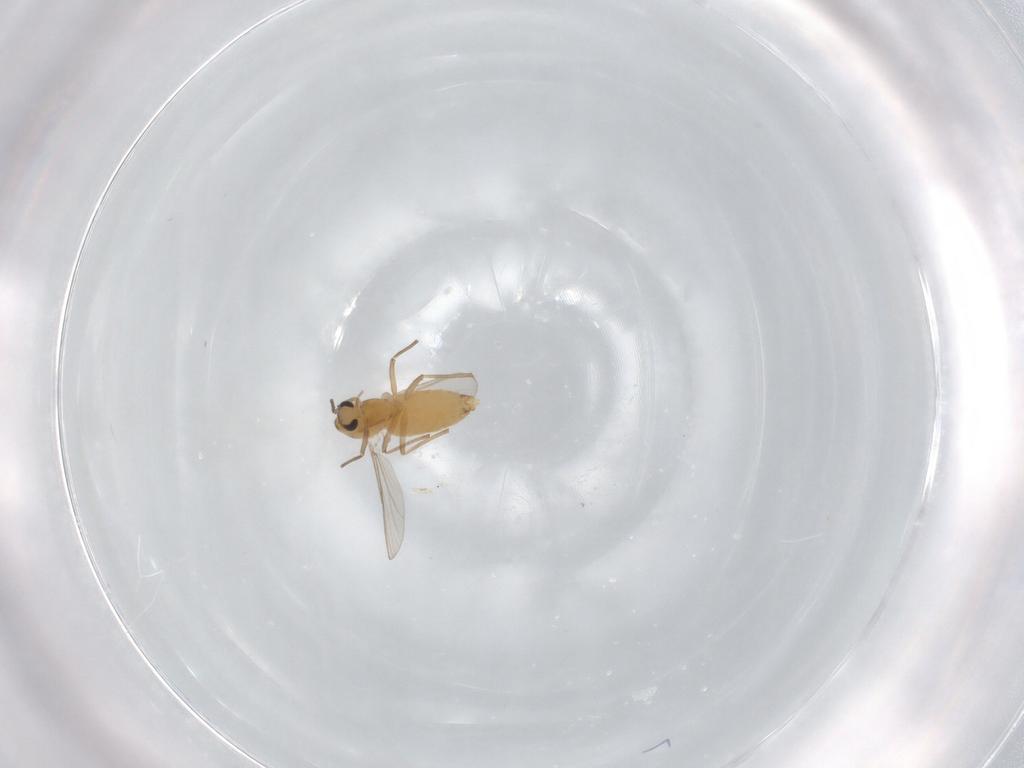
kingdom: Animalia
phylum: Arthropoda
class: Insecta
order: Diptera
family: Chironomidae
